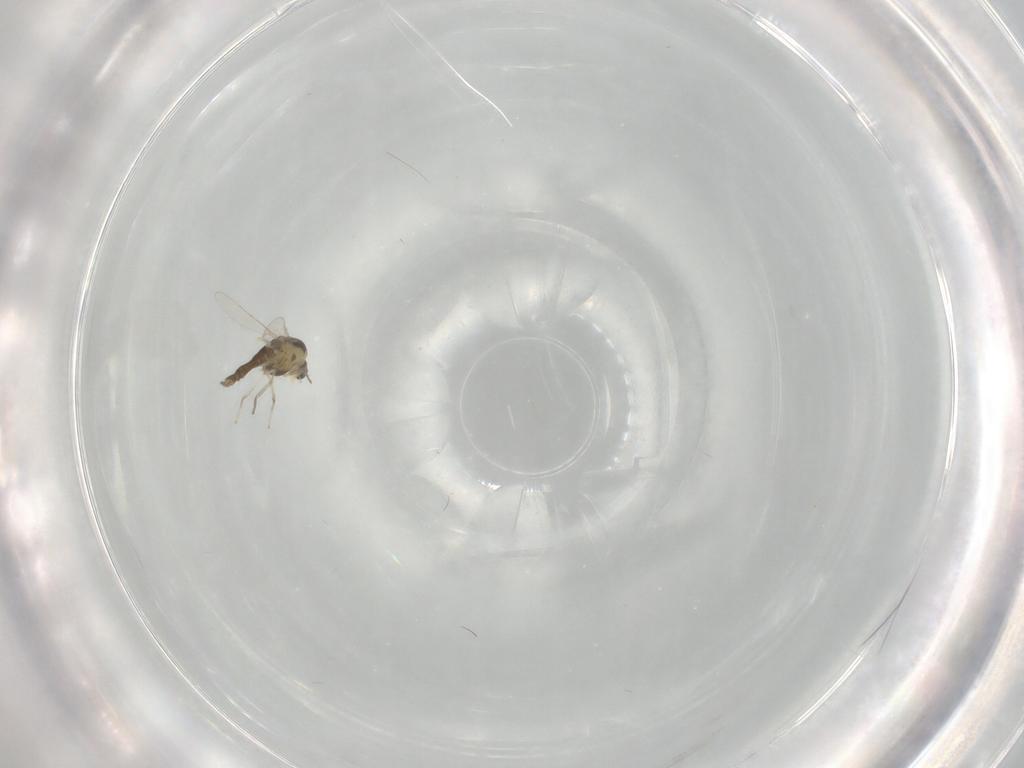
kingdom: Animalia
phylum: Arthropoda
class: Insecta
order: Diptera
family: Chironomidae
